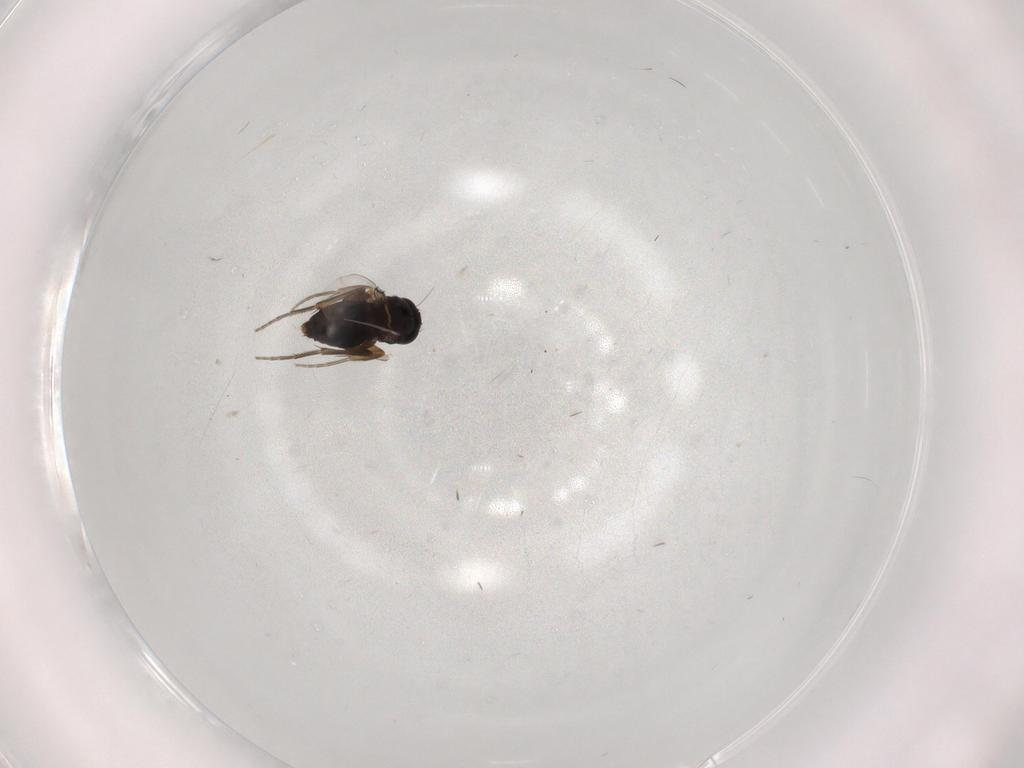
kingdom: Animalia
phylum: Arthropoda
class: Insecta
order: Diptera
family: Phoridae
